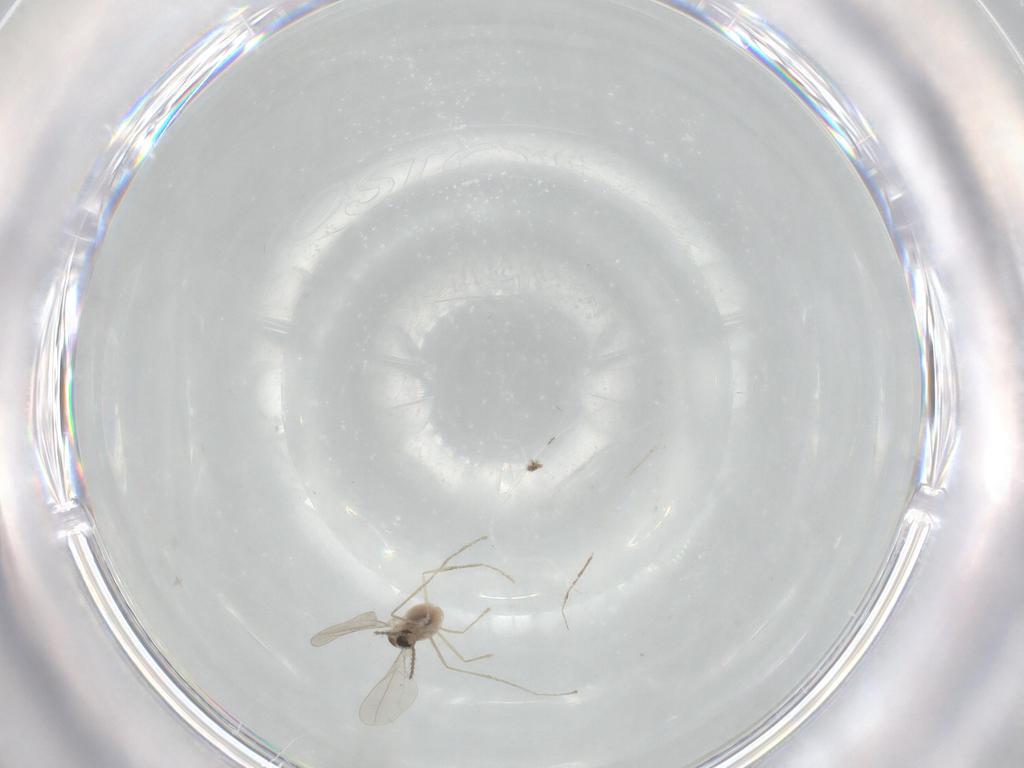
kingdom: Animalia
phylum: Arthropoda
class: Insecta
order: Diptera
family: Cecidomyiidae
